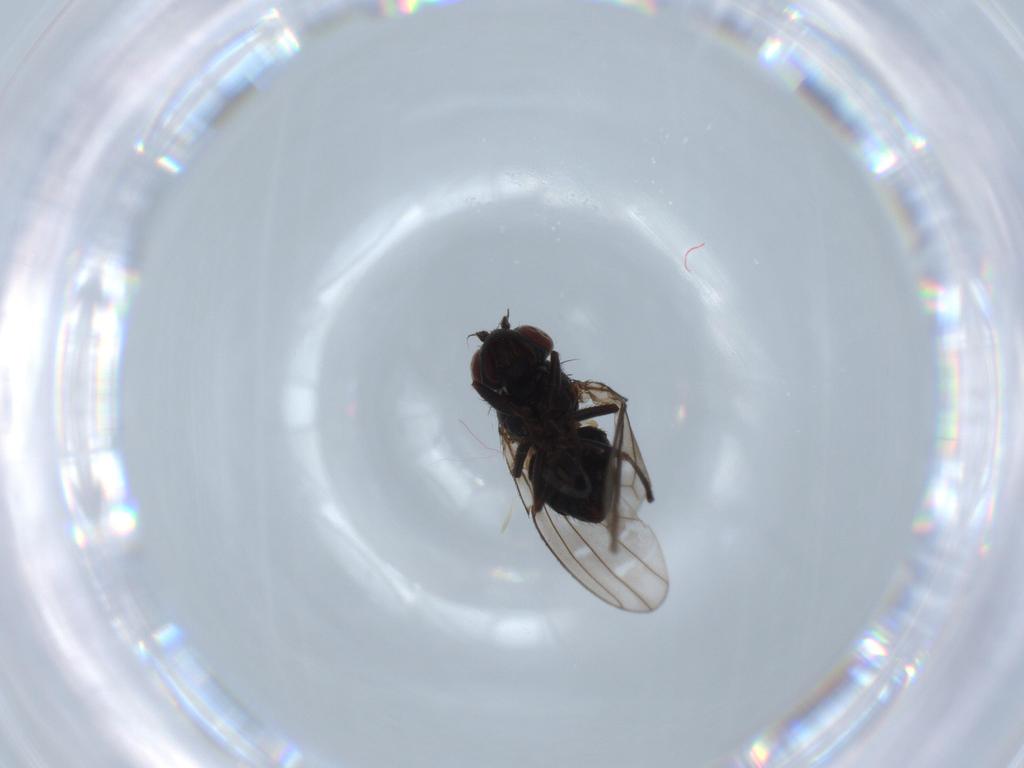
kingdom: Animalia
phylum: Arthropoda
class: Insecta
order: Diptera
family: Ephydridae
